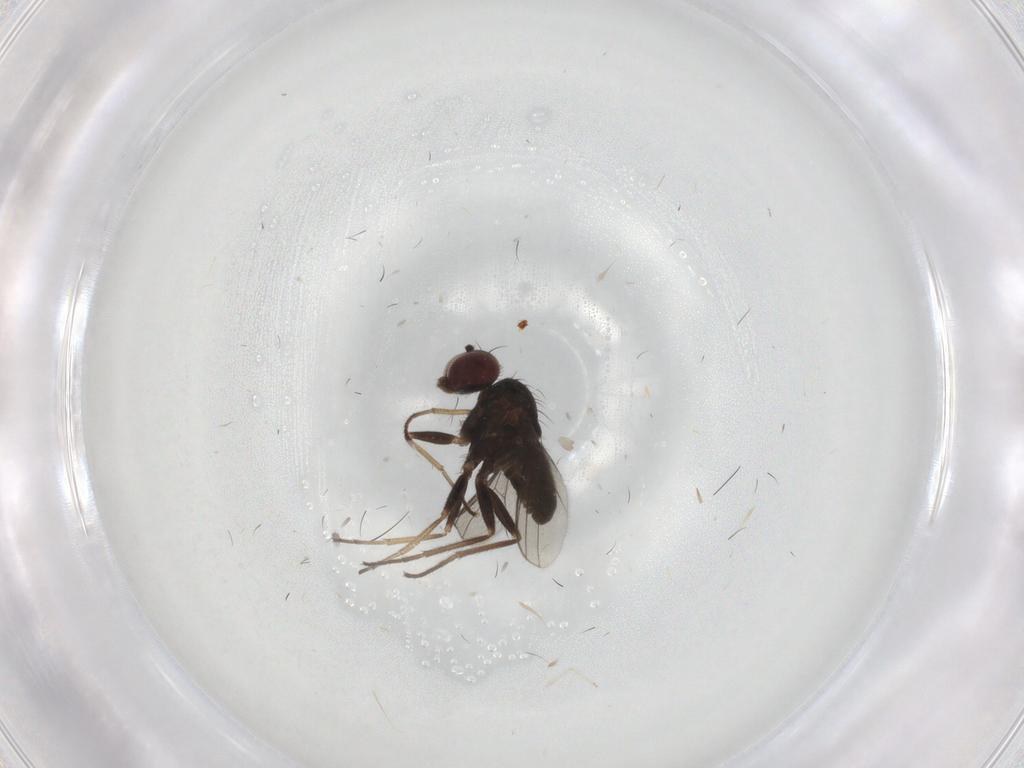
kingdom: Animalia
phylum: Arthropoda
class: Insecta
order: Diptera
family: Dolichopodidae
